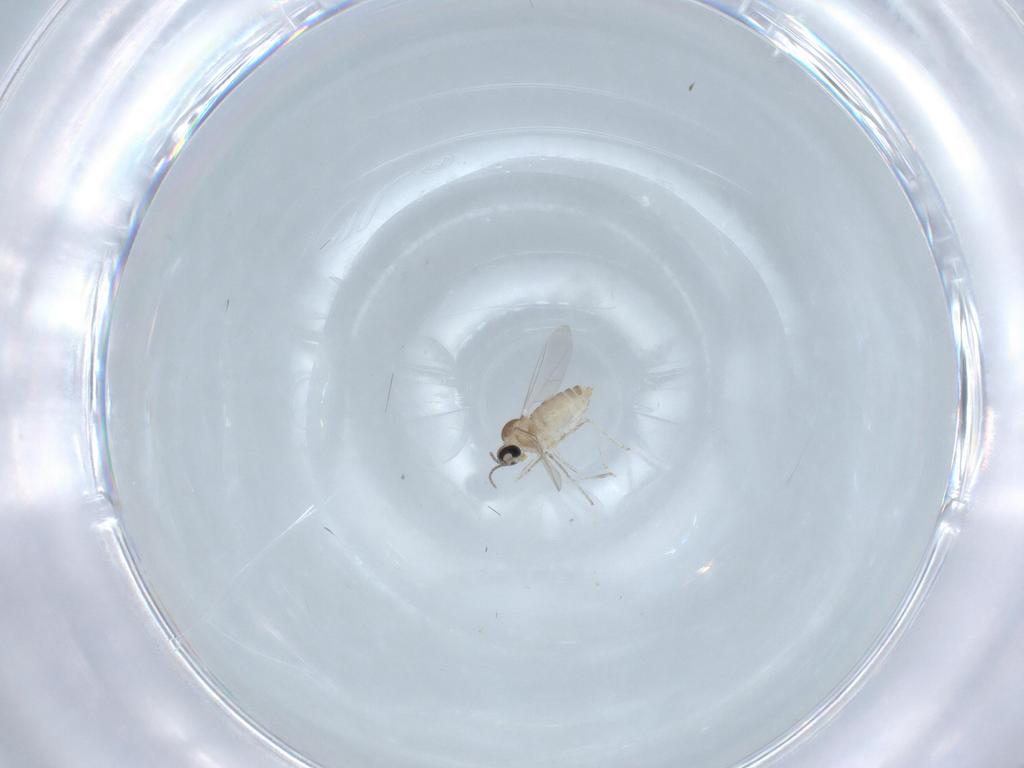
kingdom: Animalia
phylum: Arthropoda
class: Insecta
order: Diptera
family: Cecidomyiidae
